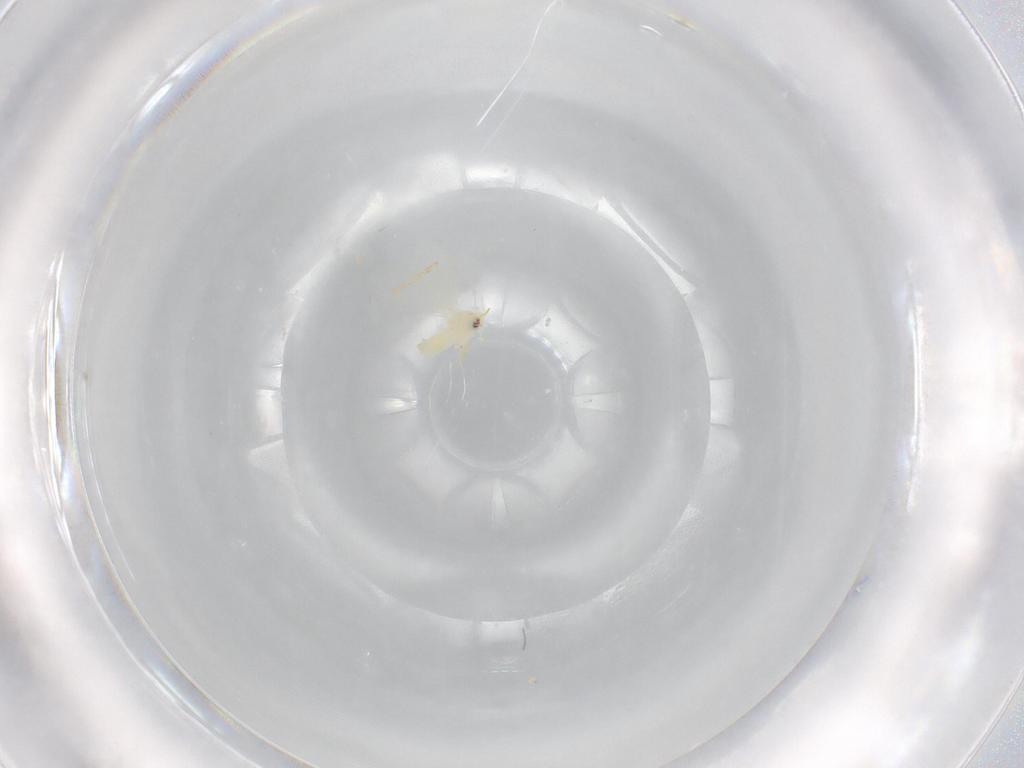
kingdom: Animalia
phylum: Arthropoda
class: Insecta
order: Hemiptera
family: Aleyrodidae
